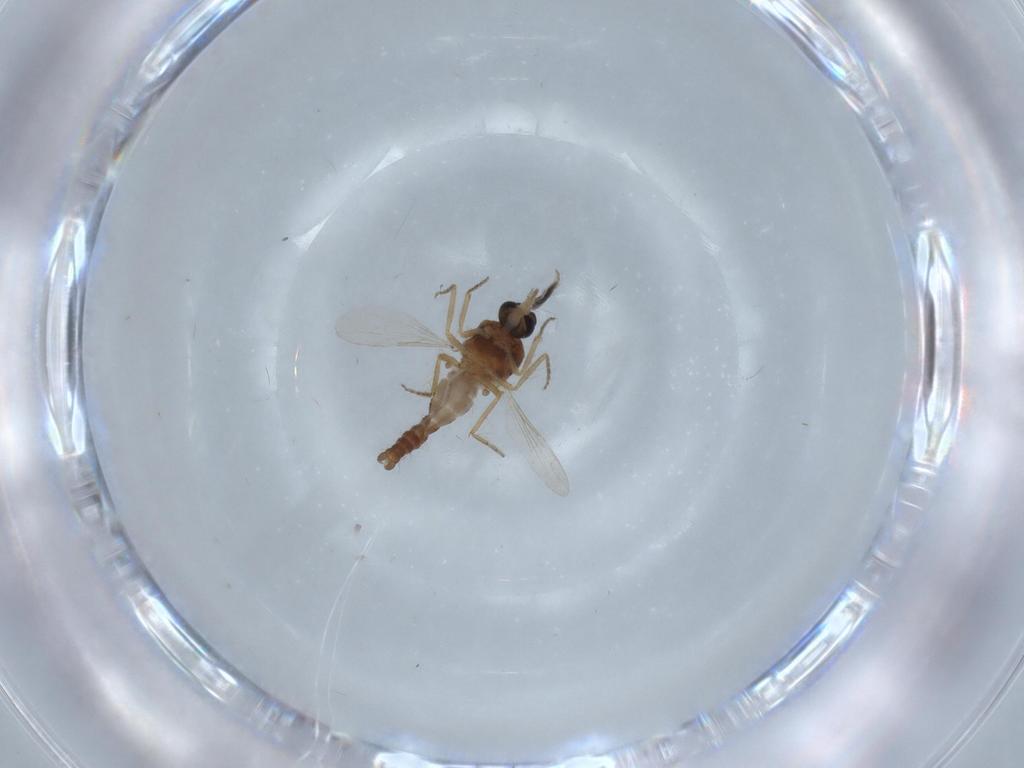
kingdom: Animalia
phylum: Arthropoda
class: Insecta
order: Diptera
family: Ceratopogonidae
